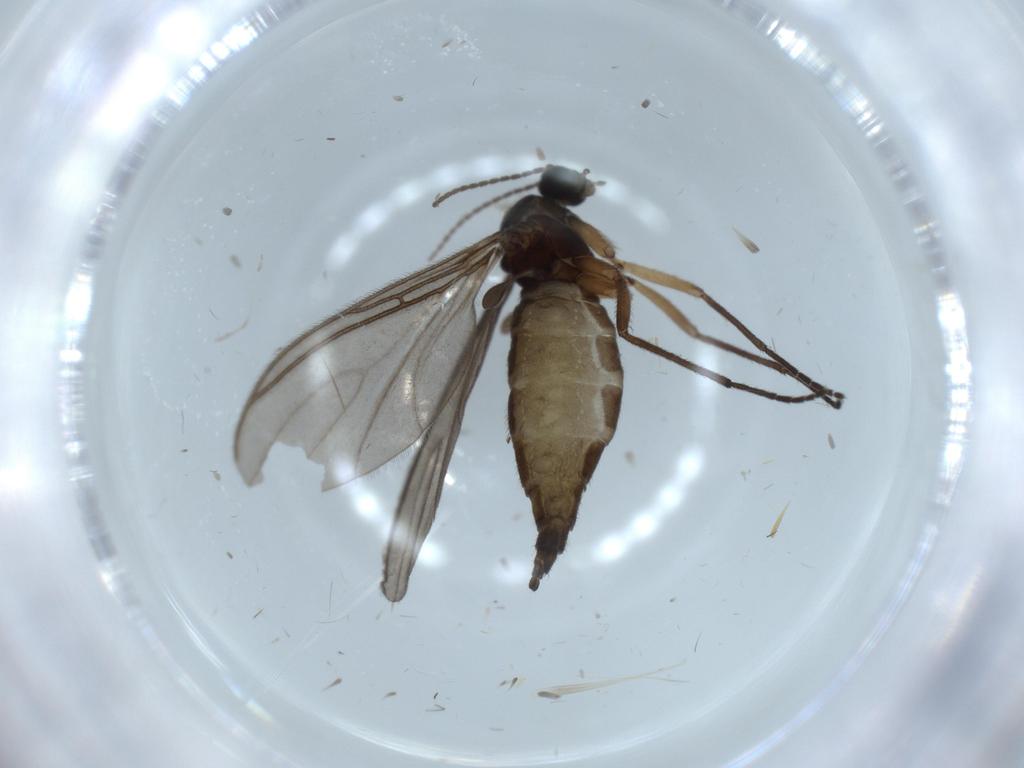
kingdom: Animalia
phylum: Arthropoda
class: Insecta
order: Diptera
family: Sciaridae
